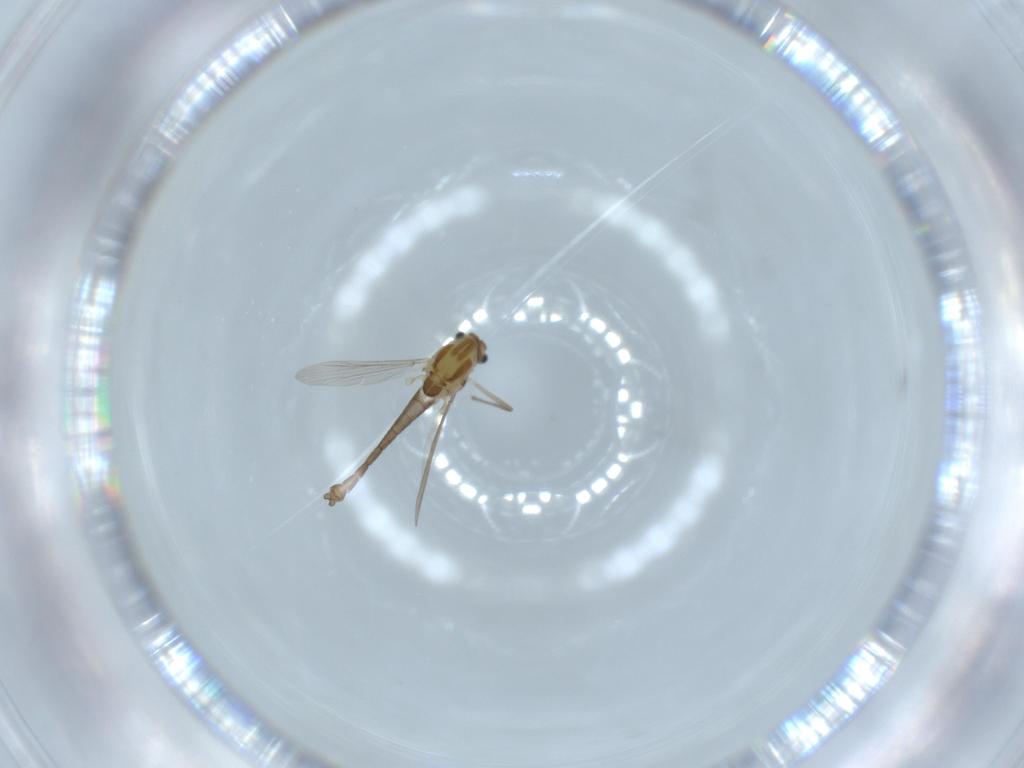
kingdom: Animalia
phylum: Arthropoda
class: Insecta
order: Diptera
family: Chironomidae
